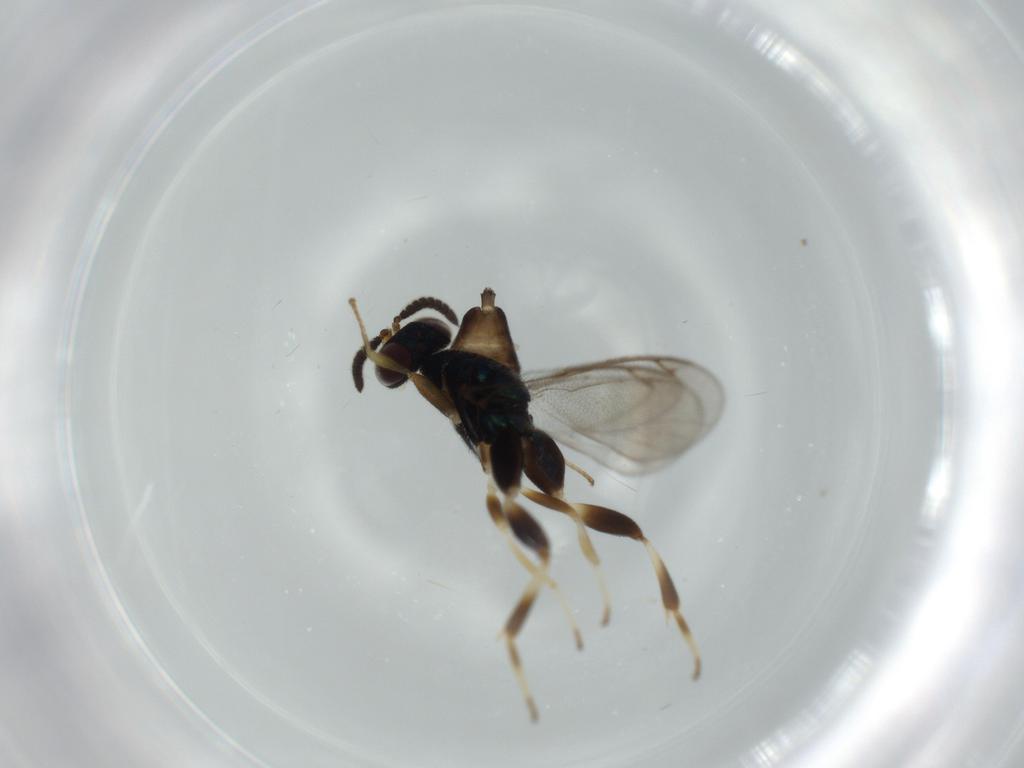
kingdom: Animalia
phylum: Arthropoda
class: Insecta
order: Hymenoptera
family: Cleonyminae
